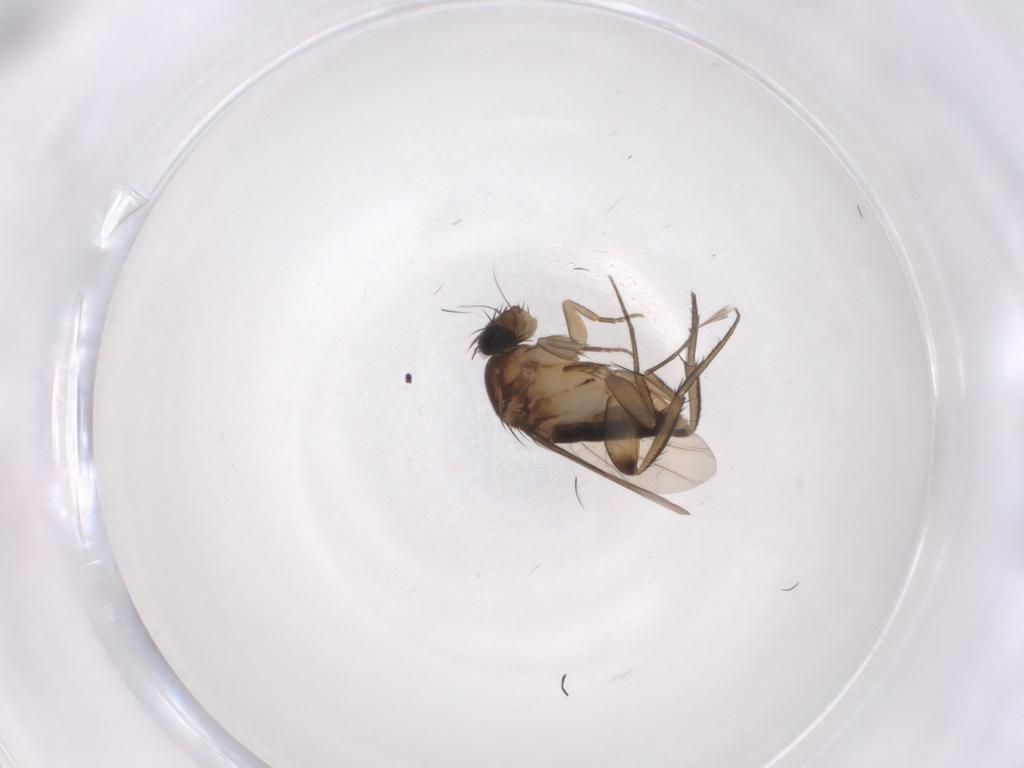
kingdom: Animalia
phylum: Arthropoda
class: Insecta
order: Diptera
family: Phoridae
